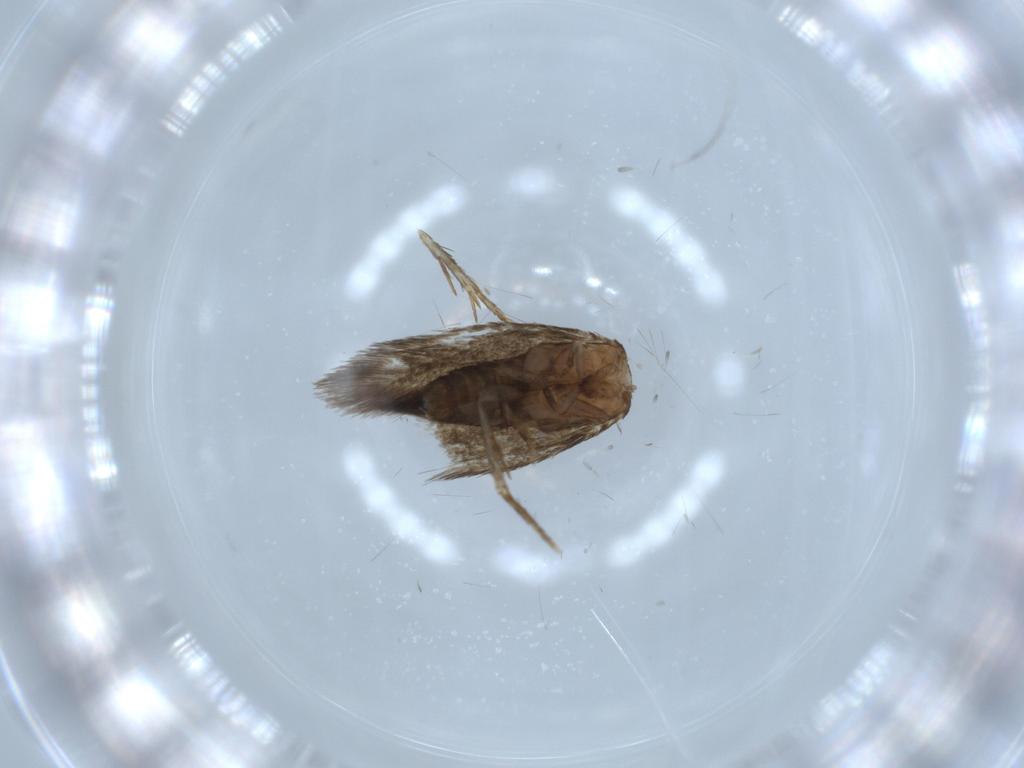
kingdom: Animalia
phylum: Arthropoda
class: Insecta
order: Lepidoptera
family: Nepticulidae
